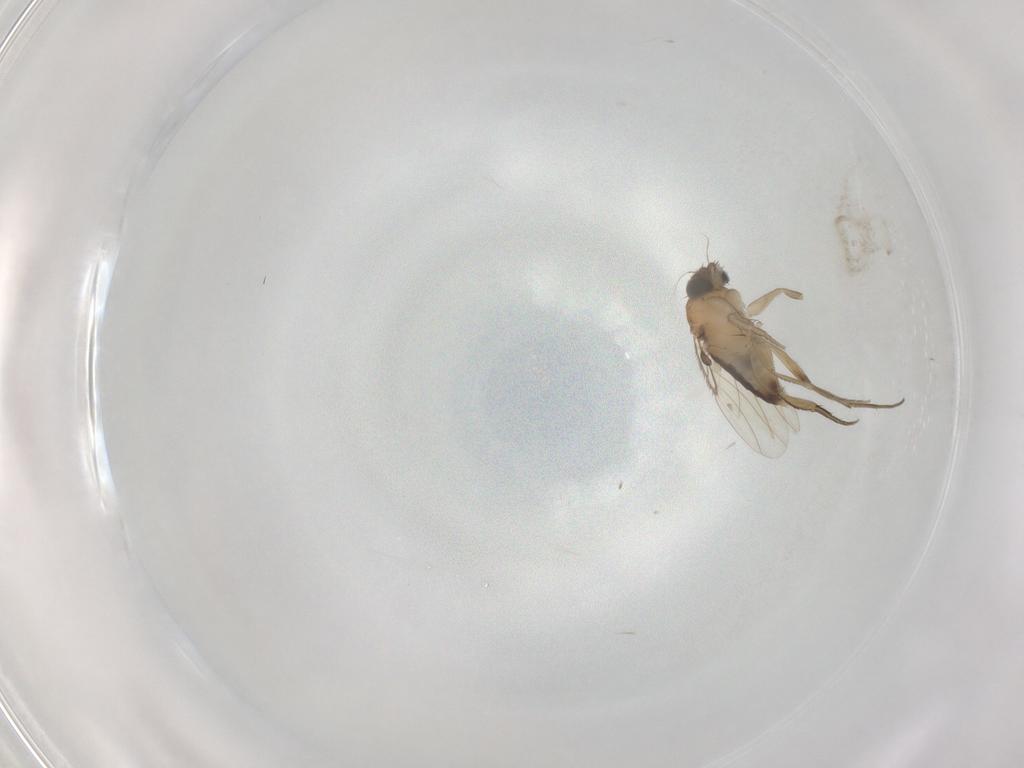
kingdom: Animalia
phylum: Arthropoda
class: Insecta
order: Diptera
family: Phoridae
